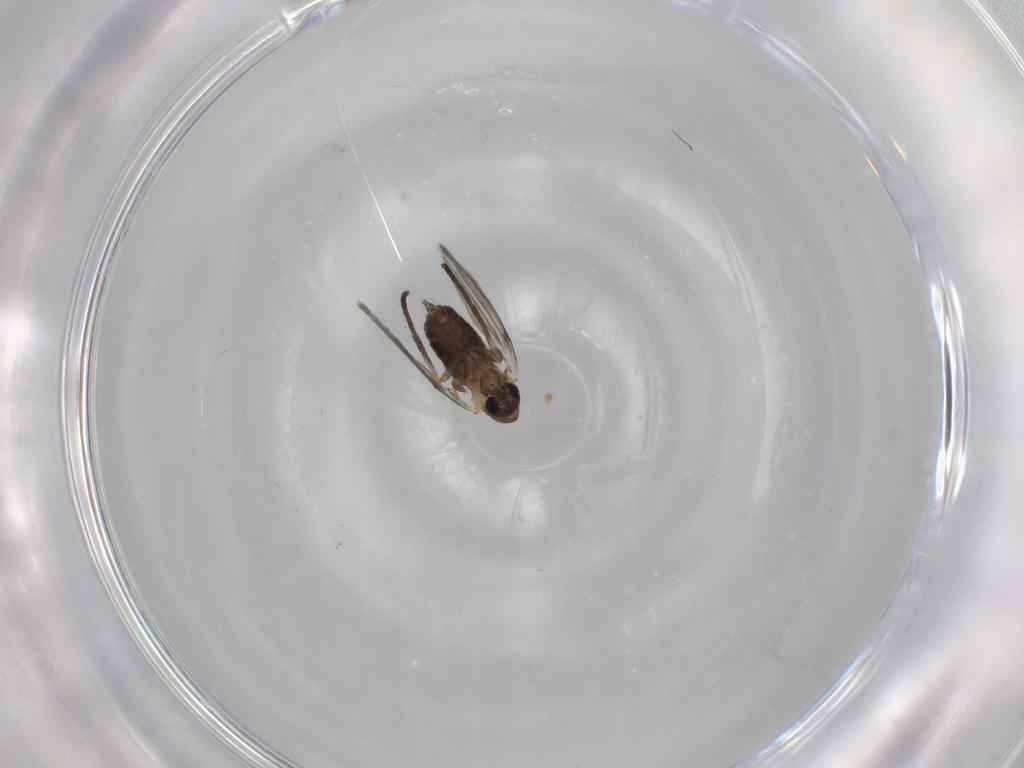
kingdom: Animalia
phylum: Arthropoda
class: Insecta
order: Diptera
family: Psychodidae
